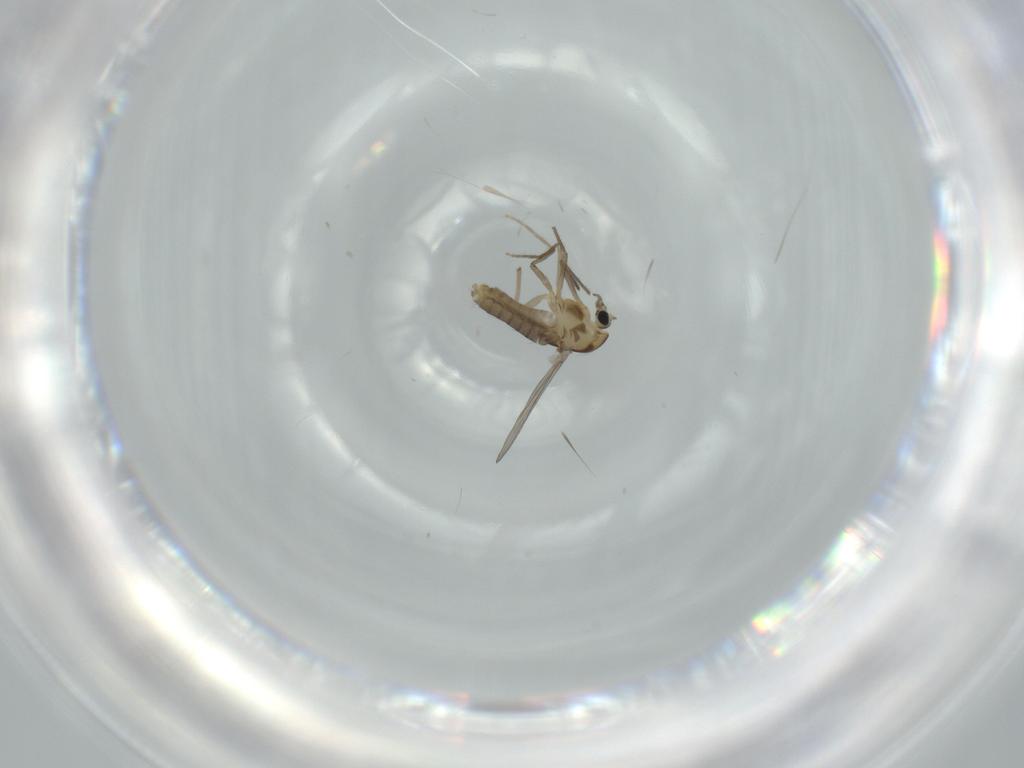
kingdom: Animalia
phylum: Arthropoda
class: Insecta
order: Diptera
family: Chironomidae
